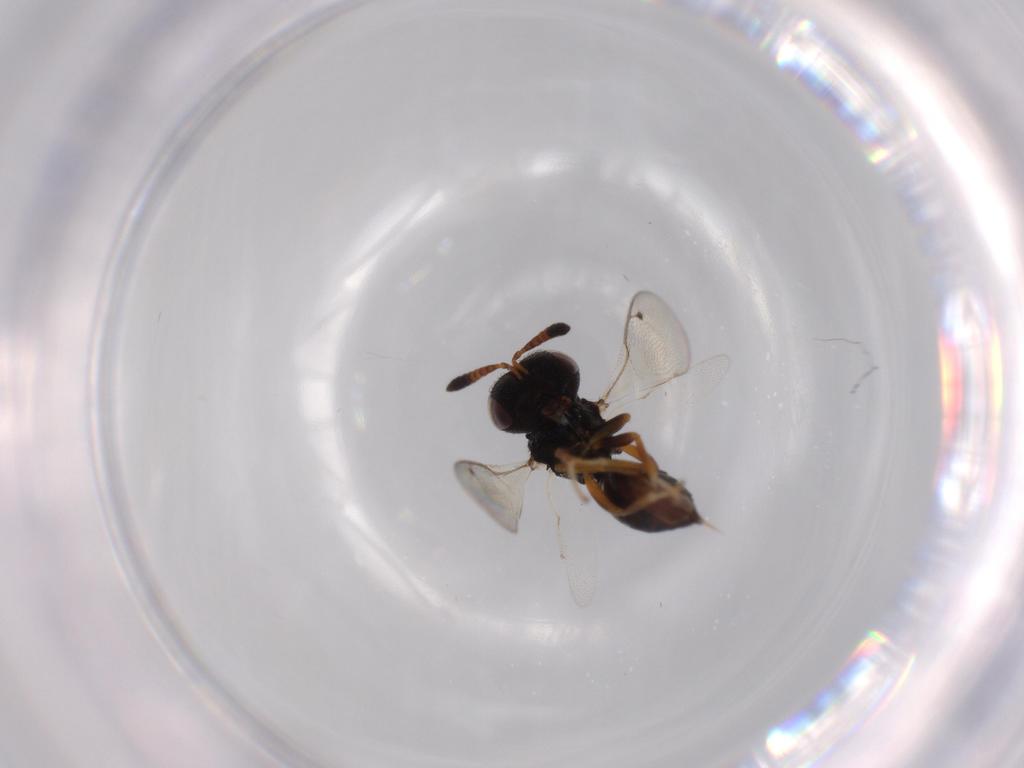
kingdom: Animalia
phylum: Arthropoda
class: Insecta
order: Hymenoptera
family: Agaonidae
